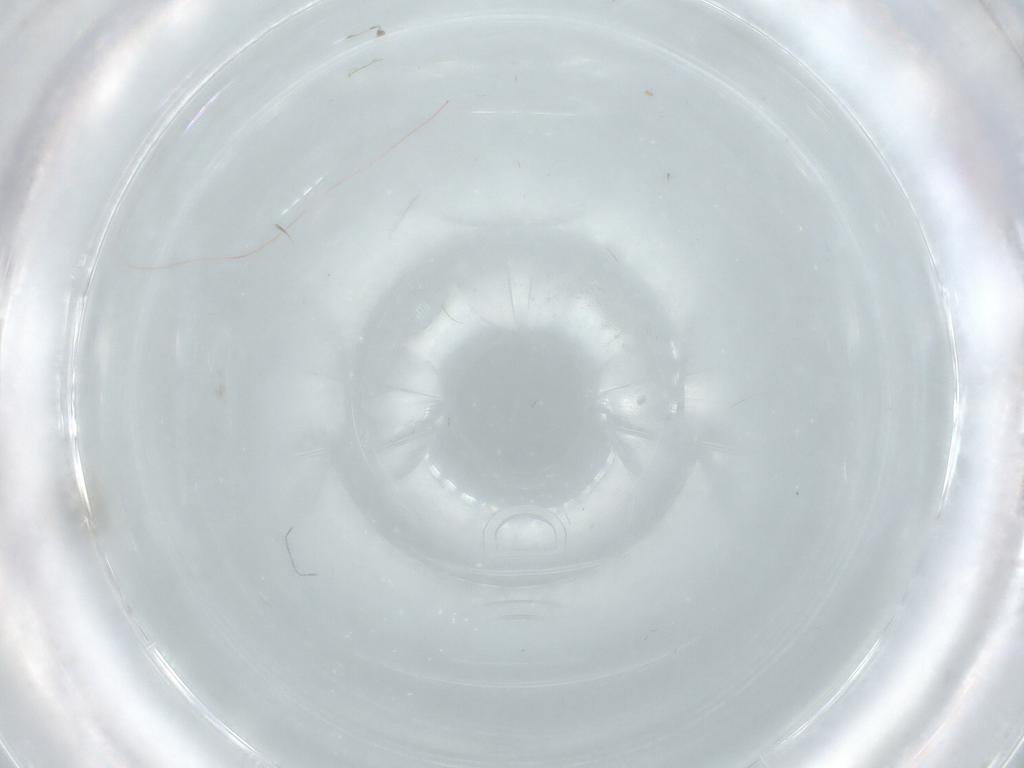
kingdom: Animalia
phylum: Arthropoda
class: Insecta
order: Diptera
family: Cecidomyiidae
